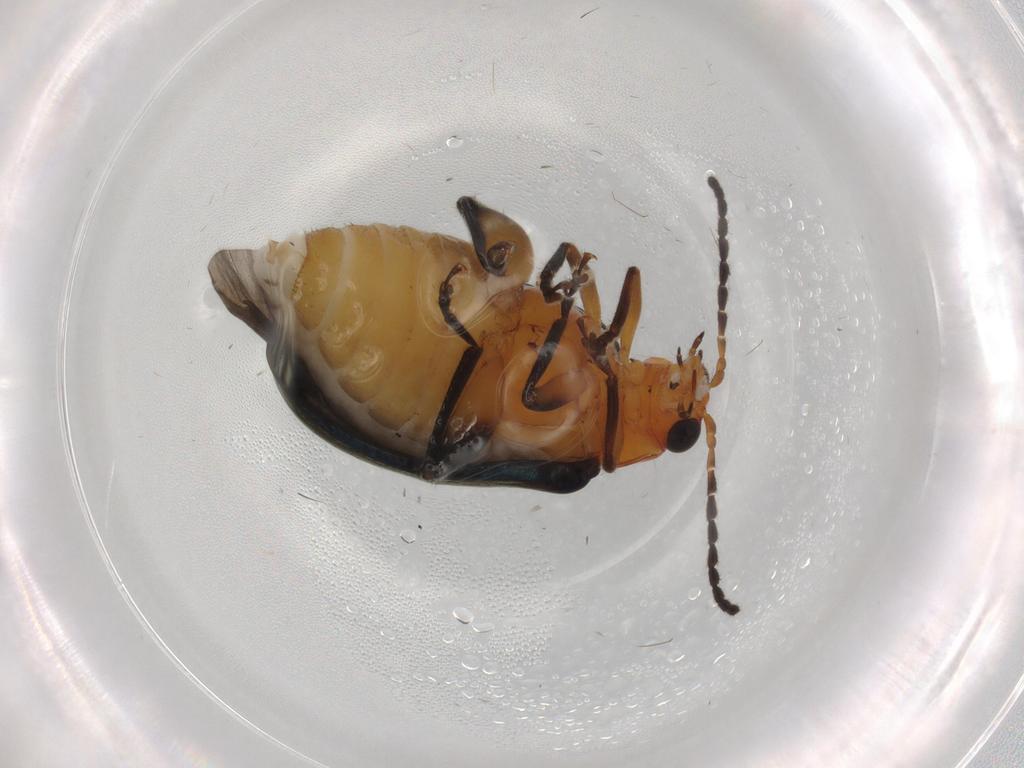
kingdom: Animalia
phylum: Arthropoda
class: Insecta
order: Coleoptera
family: Chrysomelidae
